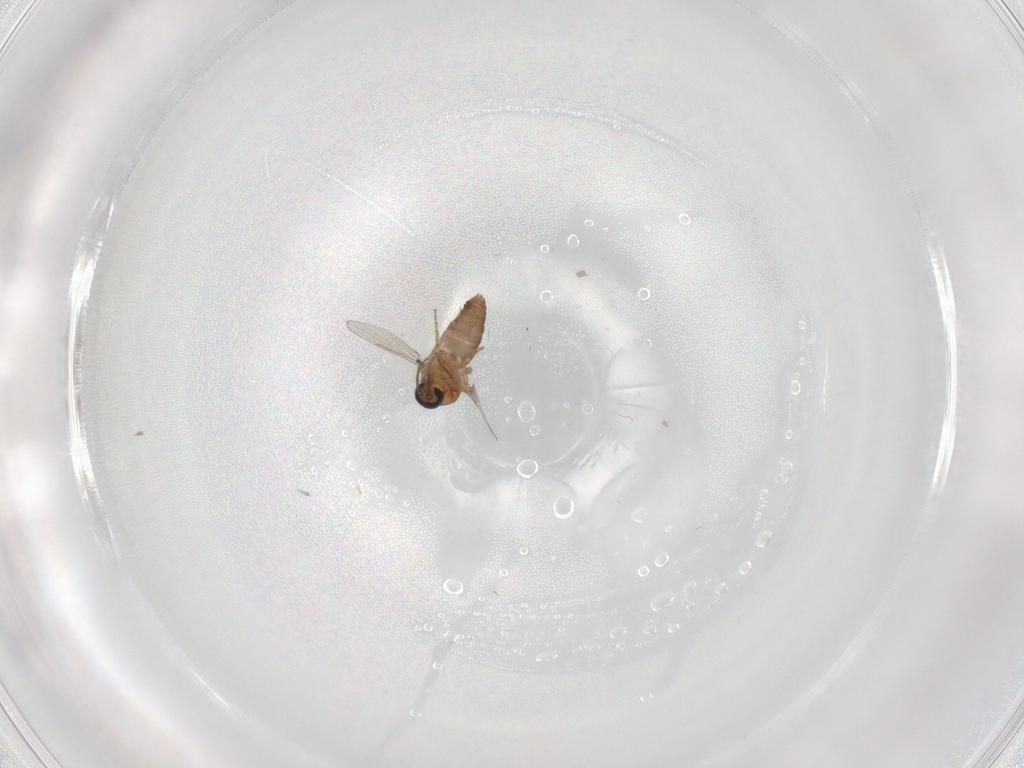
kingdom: Animalia
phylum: Arthropoda
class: Insecta
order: Diptera
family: Ceratopogonidae
